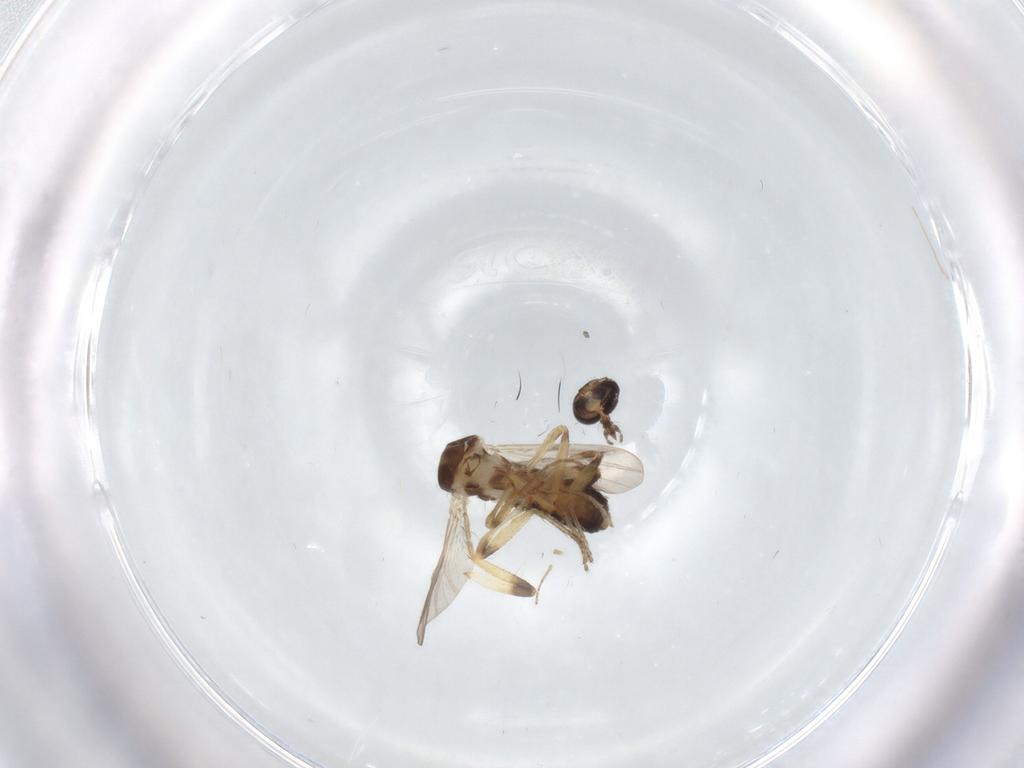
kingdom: Animalia
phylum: Arthropoda
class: Insecta
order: Diptera
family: Ceratopogonidae
